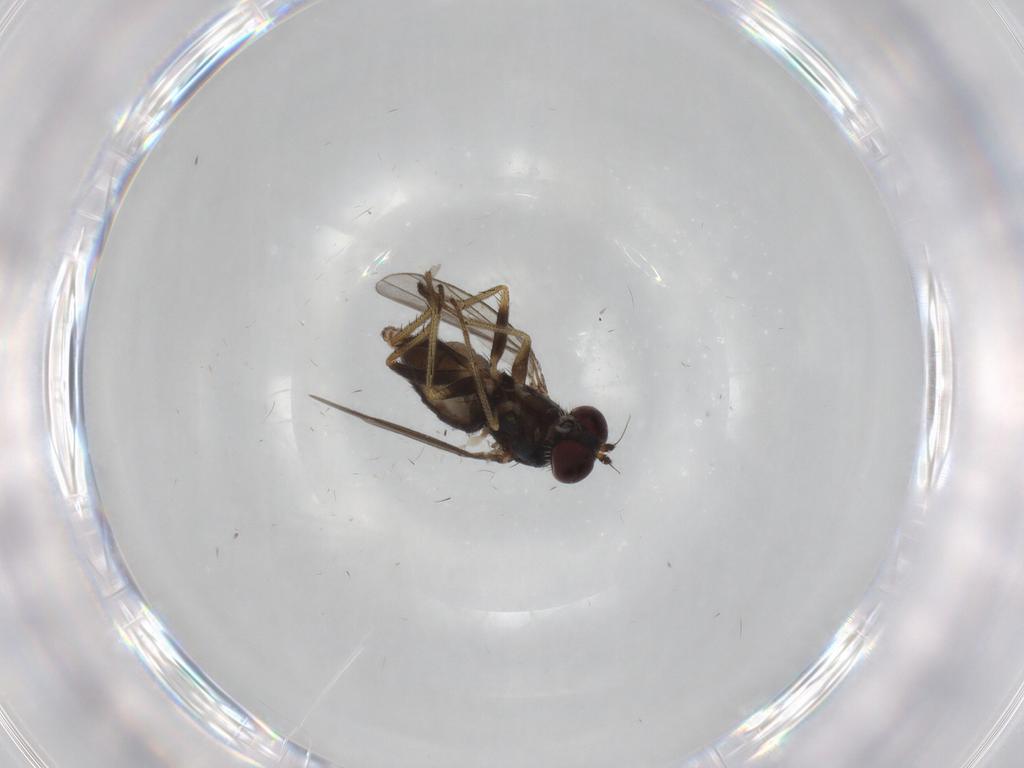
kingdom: Animalia
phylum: Arthropoda
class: Insecta
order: Diptera
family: Dolichopodidae
